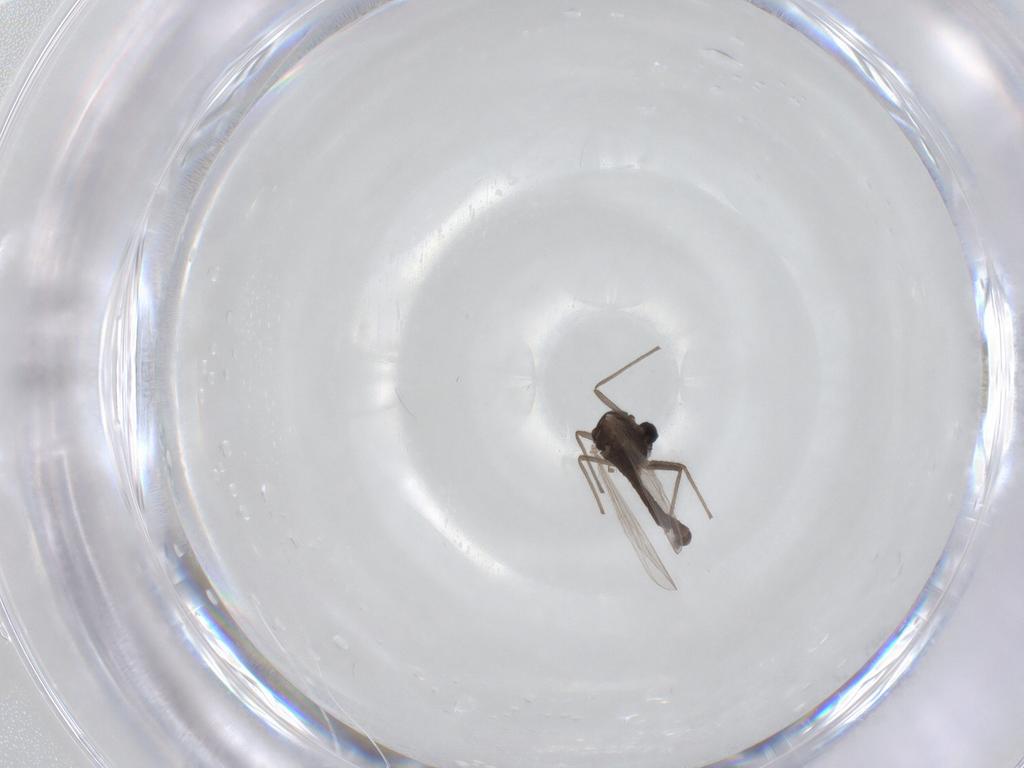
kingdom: Animalia
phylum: Arthropoda
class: Insecta
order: Diptera
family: Chironomidae
